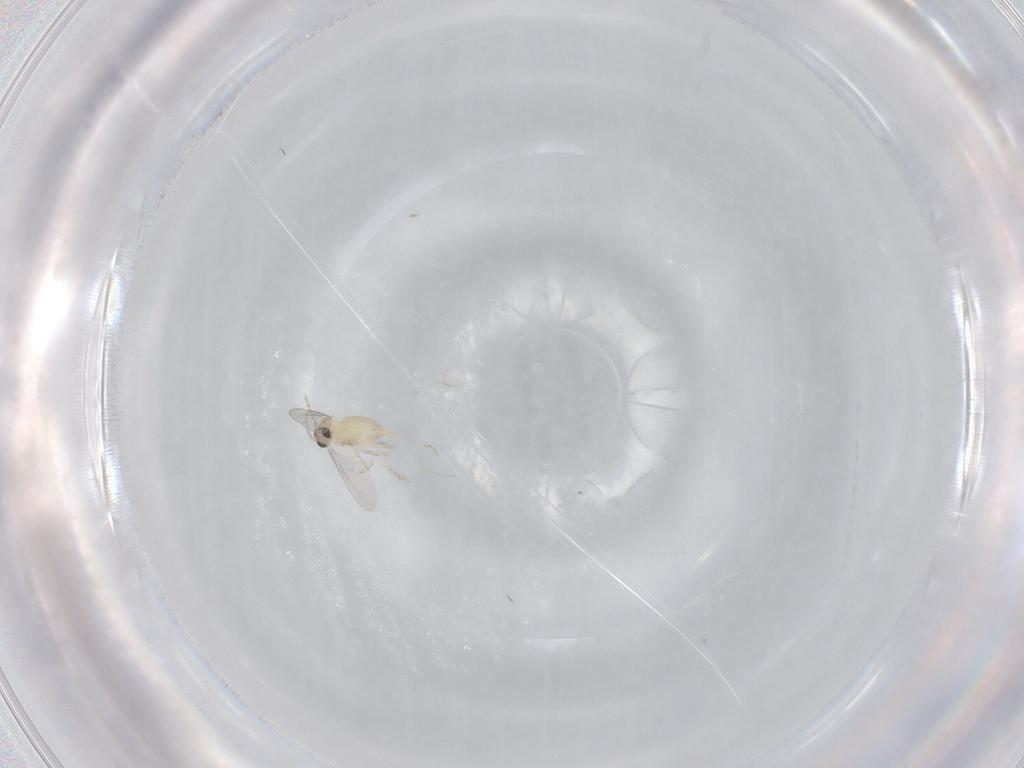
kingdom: Animalia
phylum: Arthropoda
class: Insecta
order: Diptera
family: Cecidomyiidae
